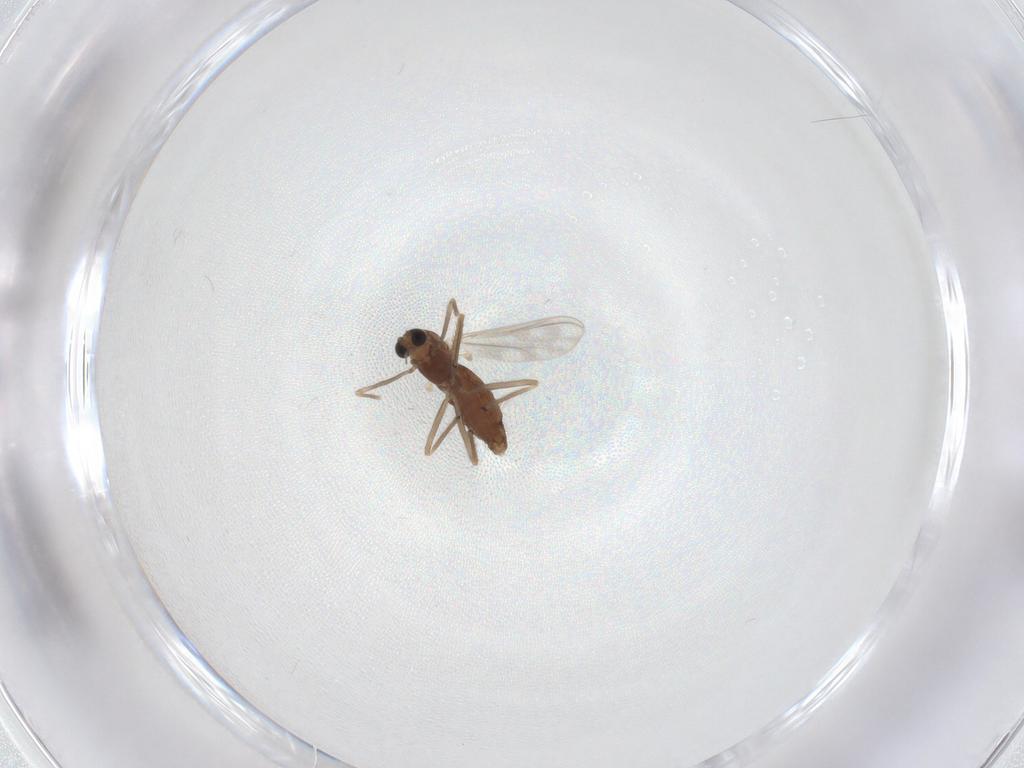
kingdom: Animalia
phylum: Arthropoda
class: Insecta
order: Diptera
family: Chironomidae
